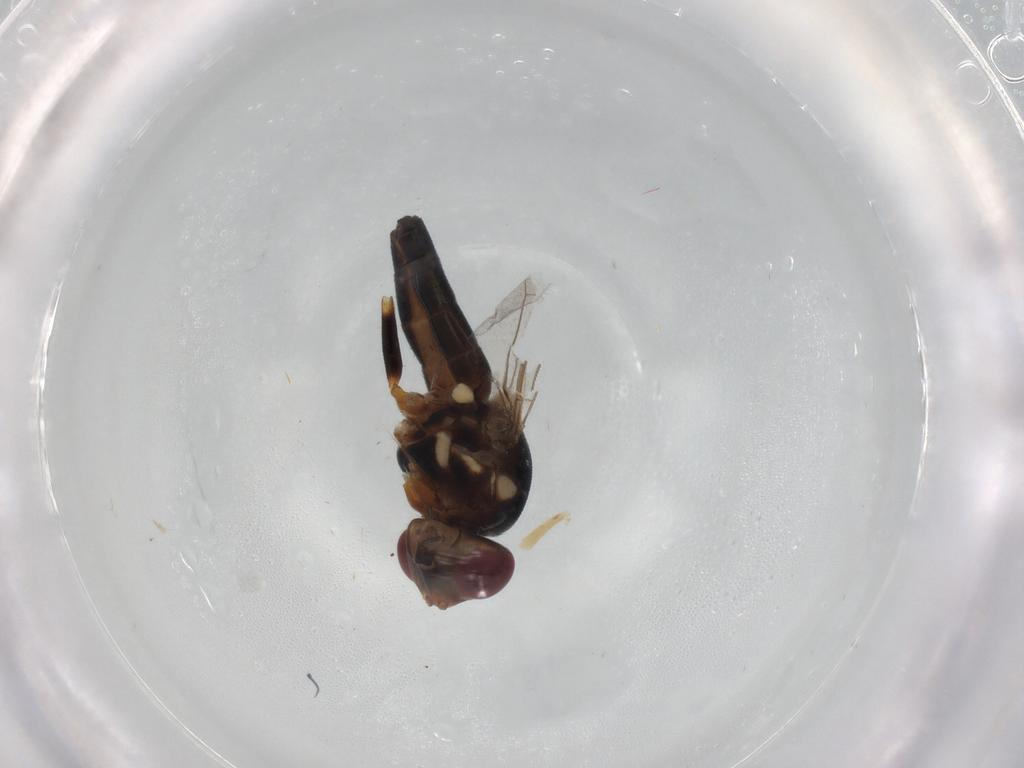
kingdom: Animalia
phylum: Arthropoda
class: Insecta
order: Diptera
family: Chloropidae
